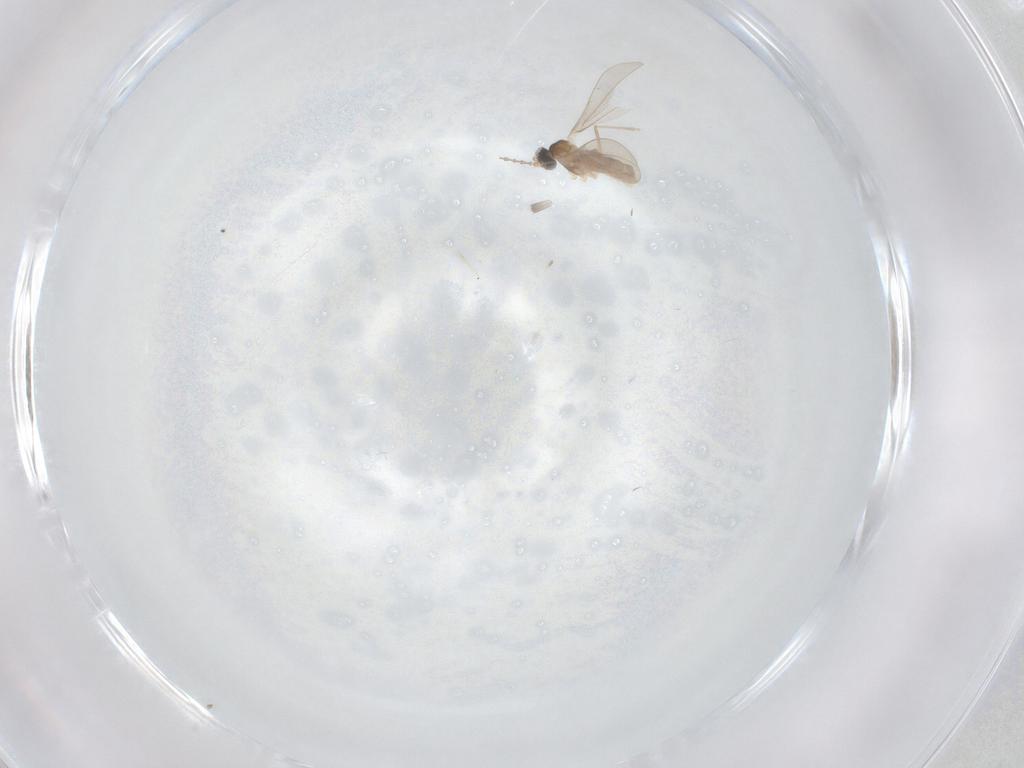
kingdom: Animalia
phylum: Arthropoda
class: Insecta
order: Diptera
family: Cecidomyiidae
